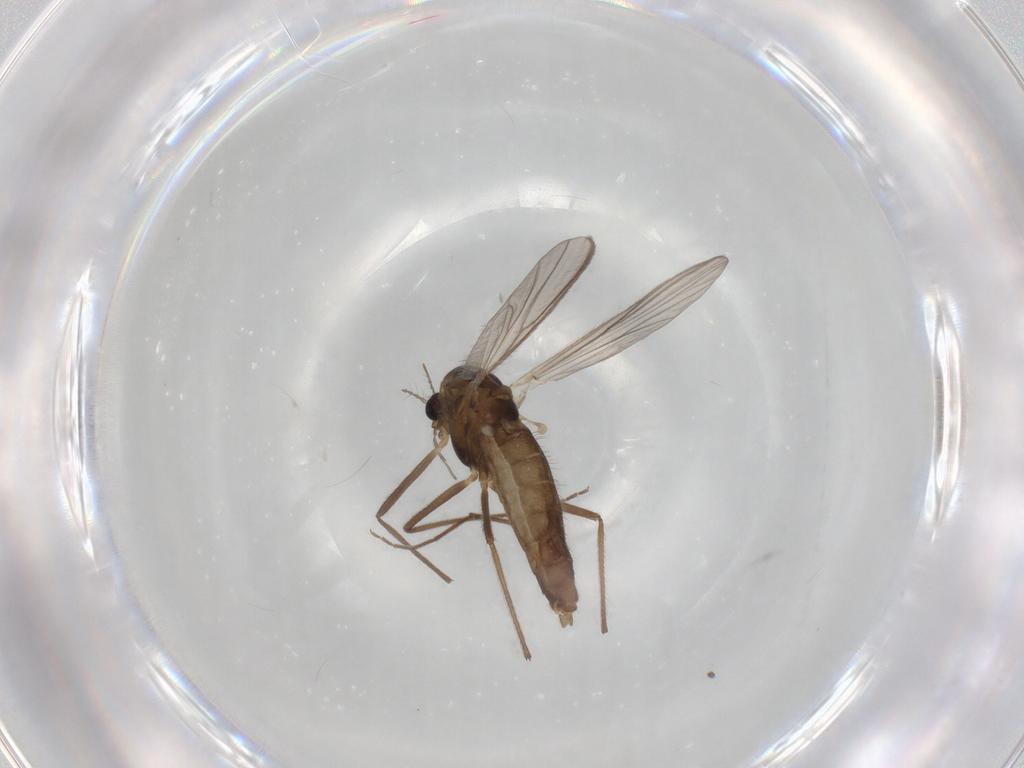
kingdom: Animalia
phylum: Arthropoda
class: Insecta
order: Diptera
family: Chironomidae
